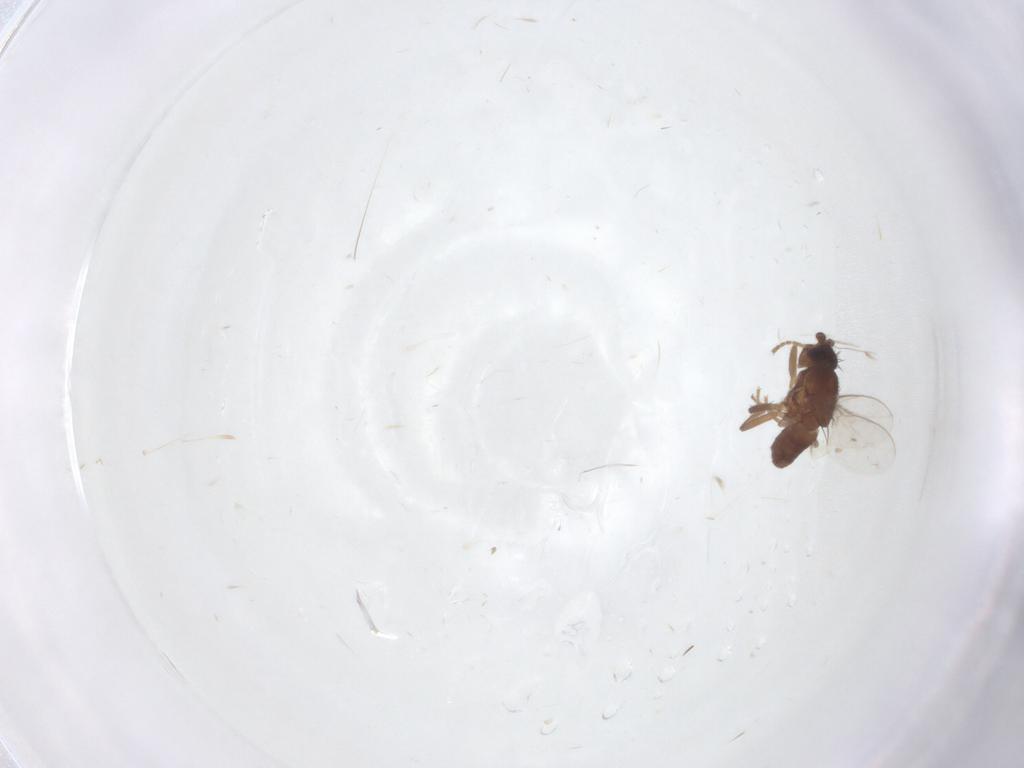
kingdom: Animalia
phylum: Arthropoda
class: Insecta
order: Diptera
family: Sphaeroceridae
